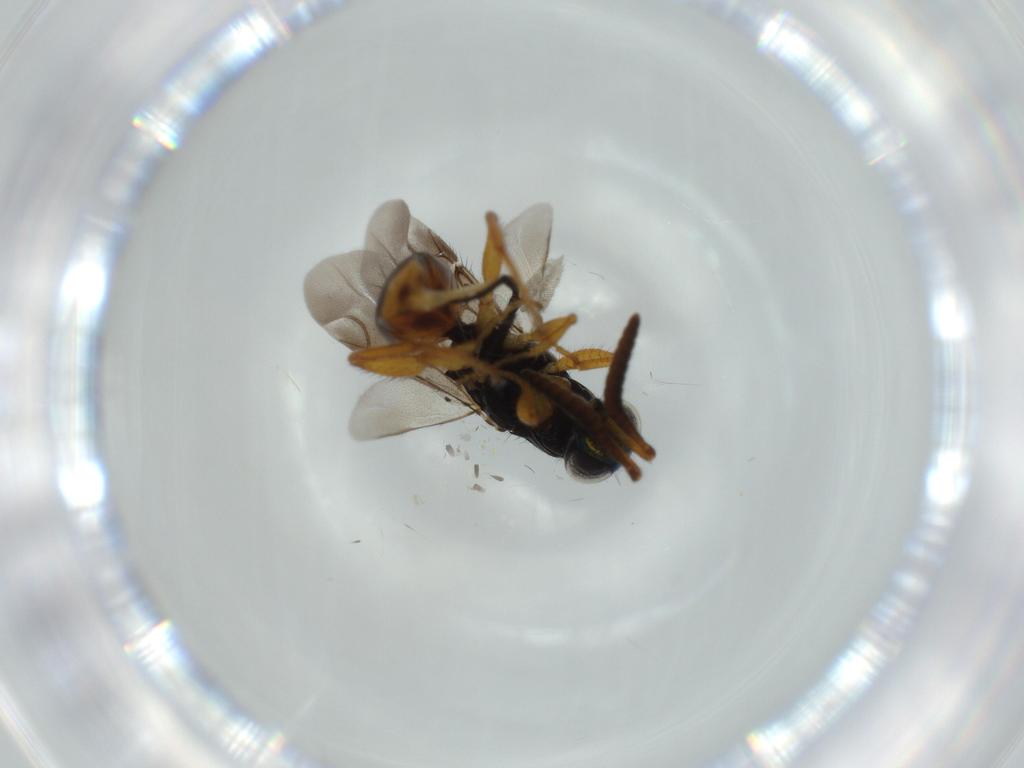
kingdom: Animalia
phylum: Arthropoda
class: Insecta
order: Hymenoptera
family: Chrysididae
